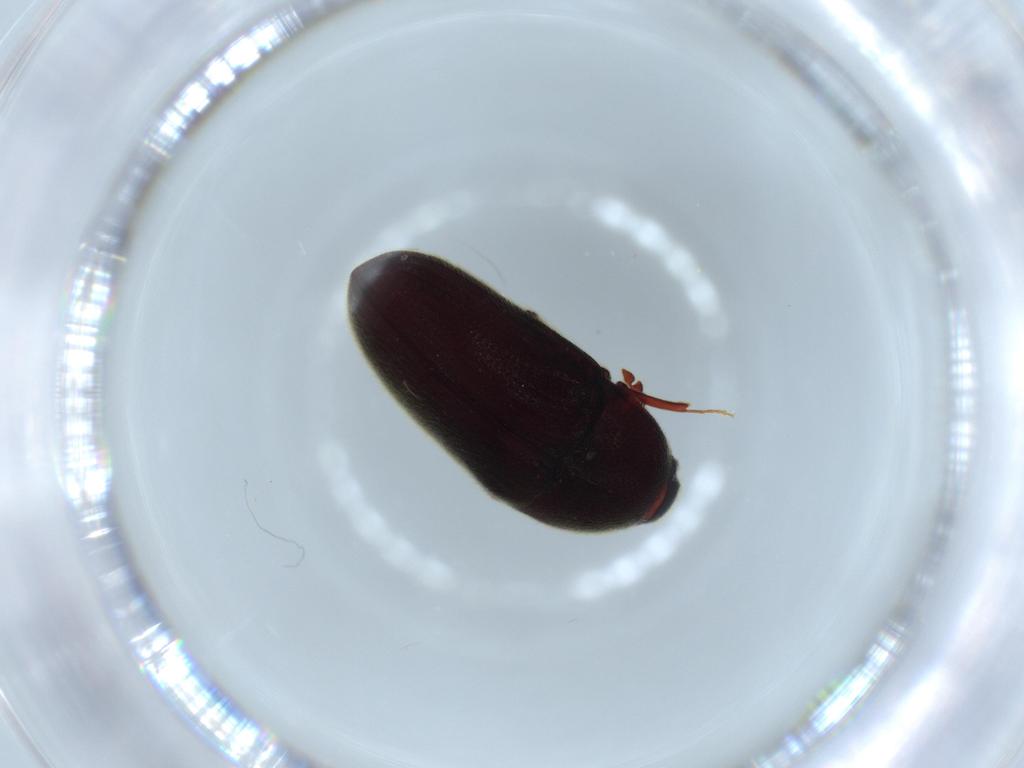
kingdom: Animalia
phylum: Arthropoda
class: Insecta
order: Coleoptera
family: Throscidae
